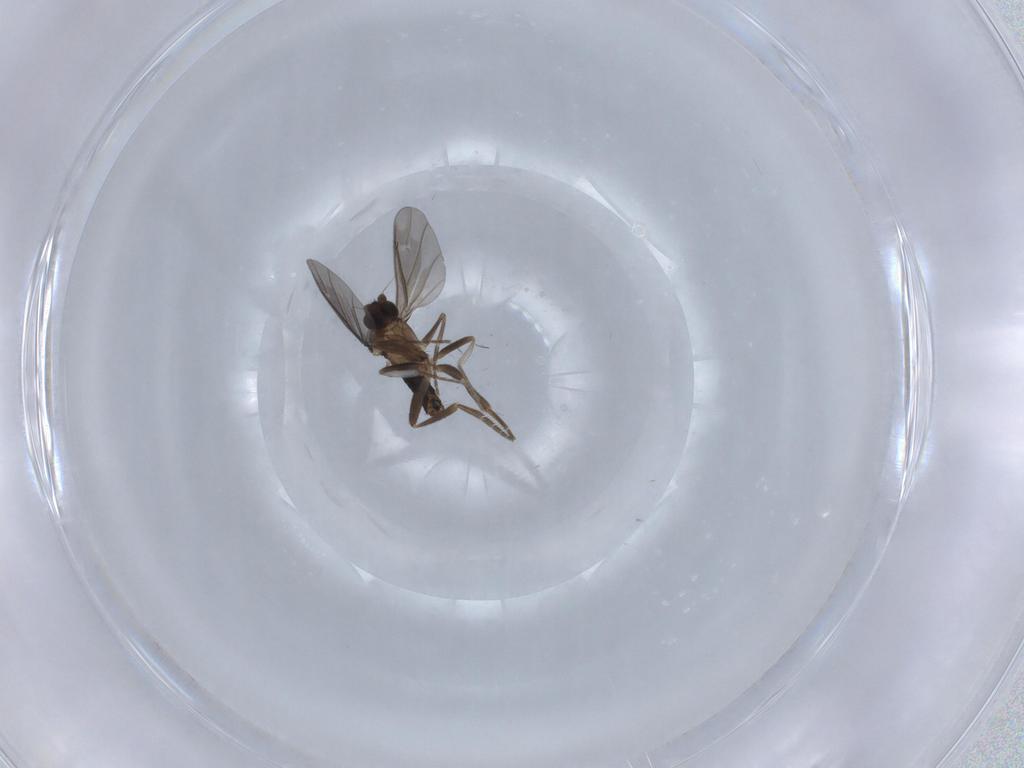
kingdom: Animalia
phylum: Arthropoda
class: Insecta
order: Diptera
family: Phoridae
